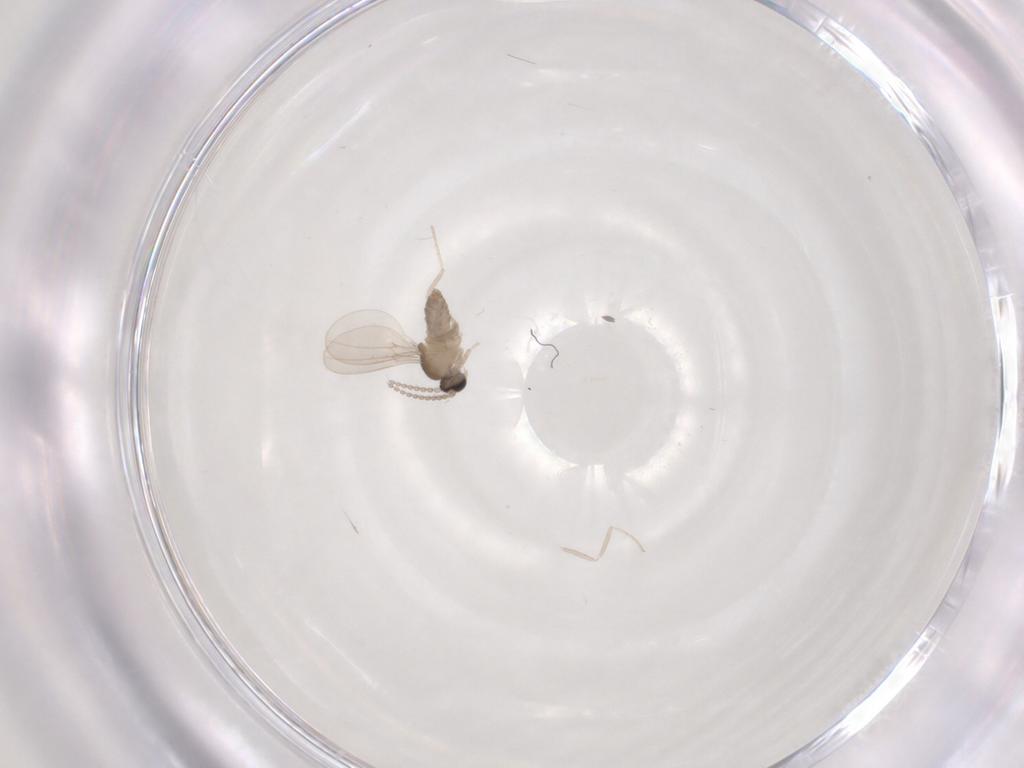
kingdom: Animalia
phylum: Arthropoda
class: Insecta
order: Diptera
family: Cecidomyiidae
